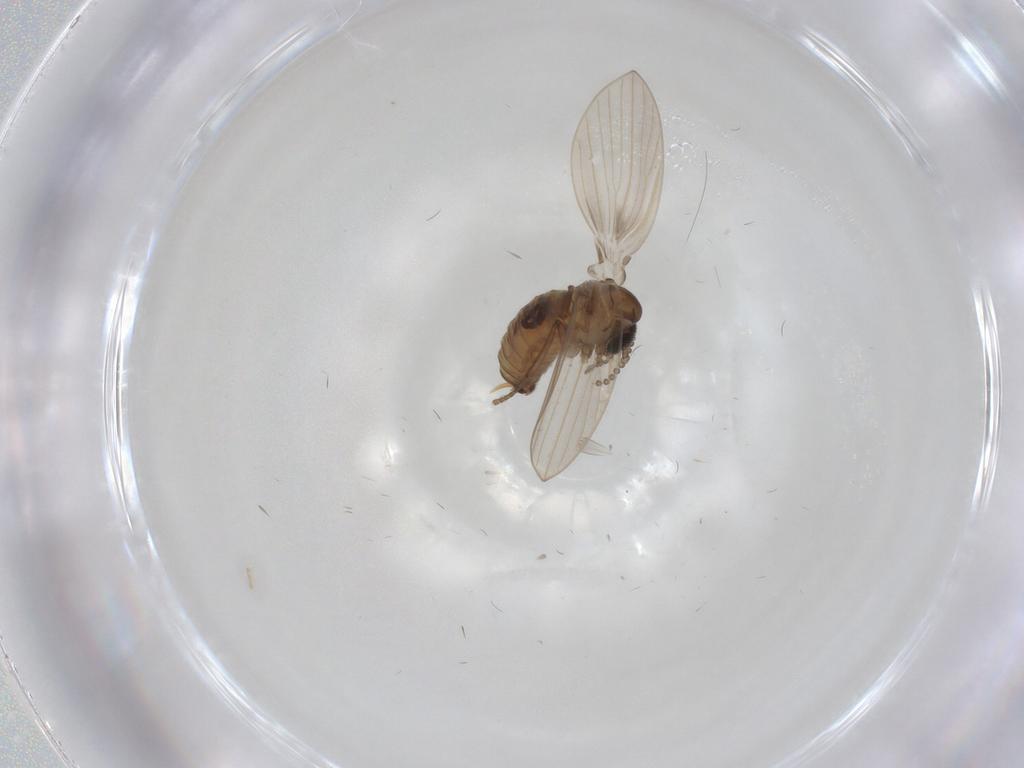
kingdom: Animalia
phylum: Arthropoda
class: Insecta
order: Diptera
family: Psychodidae
